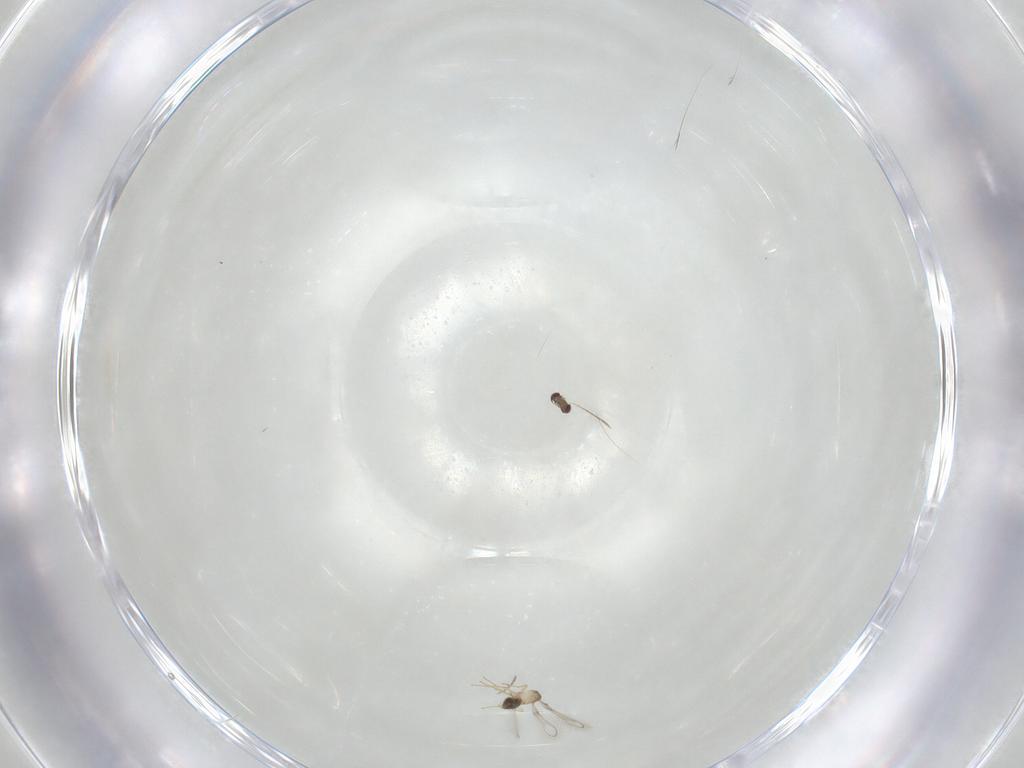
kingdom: Animalia
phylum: Arthropoda
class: Insecta
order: Hymenoptera
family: Mymaridae
